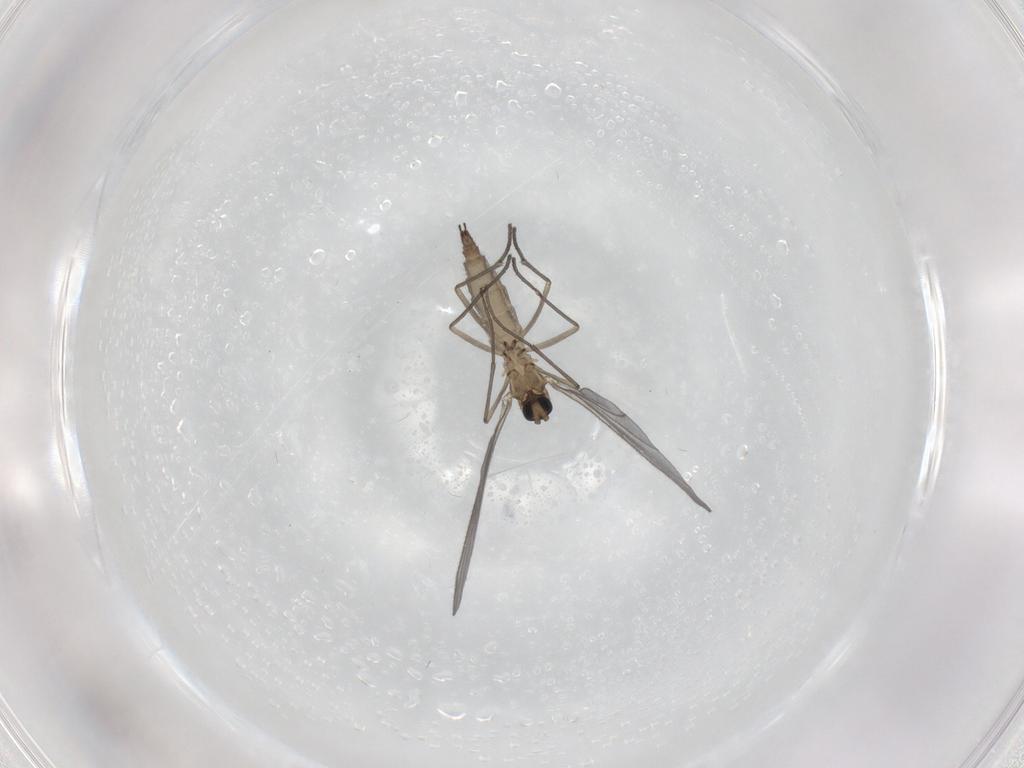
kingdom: Animalia
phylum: Arthropoda
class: Insecta
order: Diptera
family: Sciaridae
